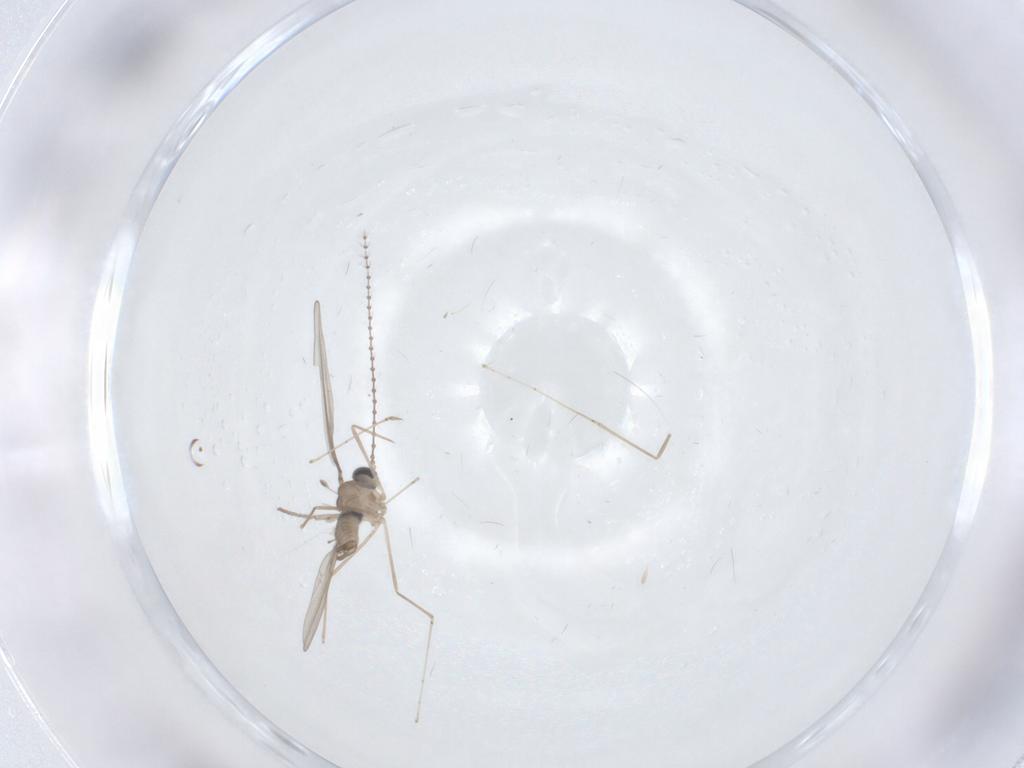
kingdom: Animalia
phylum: Arthropoda
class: Insecta
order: Diptera
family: Cecidomyiidae
